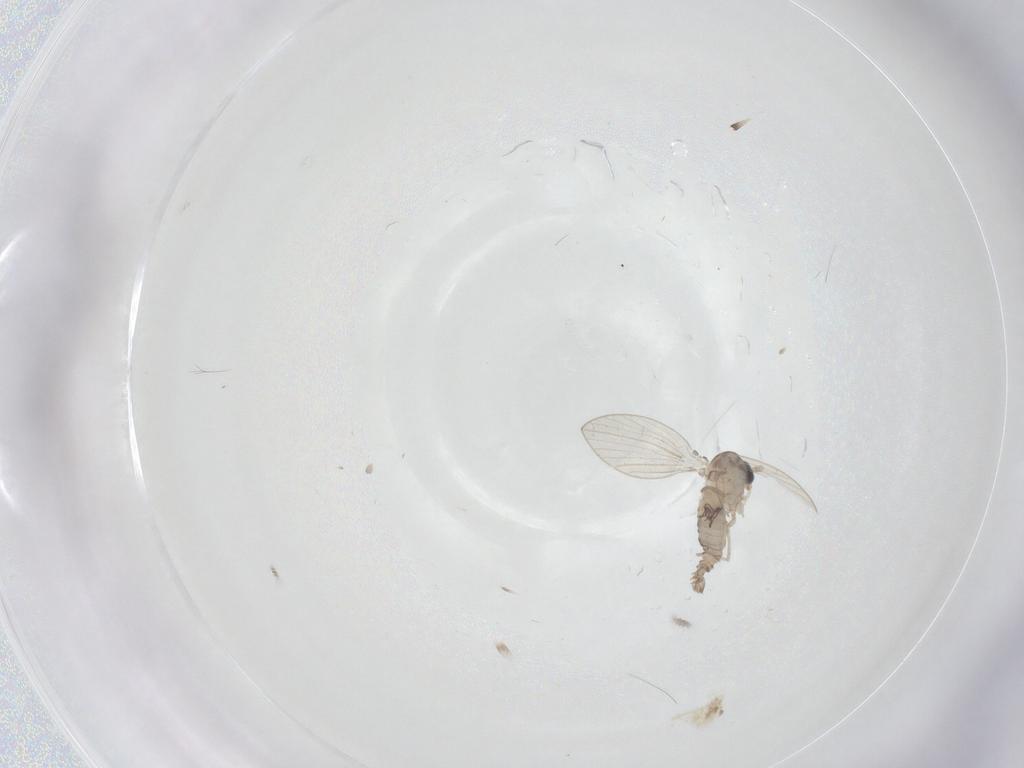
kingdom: Animalia
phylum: Arthropoda
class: Insecta
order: Diptera
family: Psychodidae
